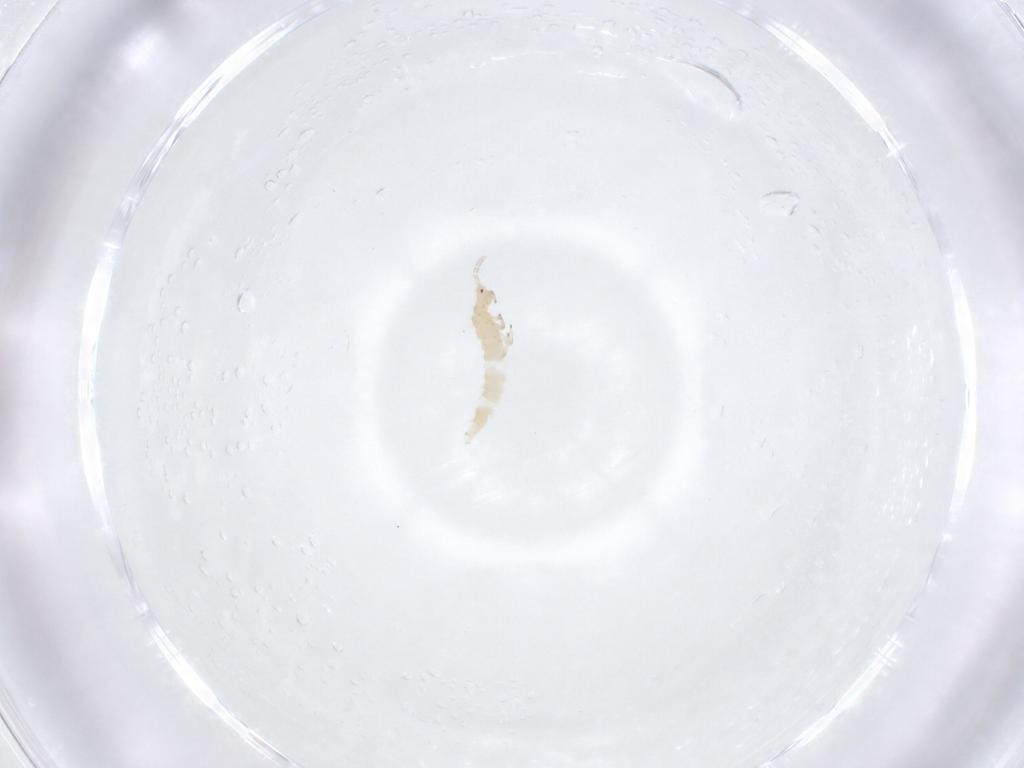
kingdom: Animalia
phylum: Arthropoda
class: Insecta
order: Thysanoptera
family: Aeolothripidae
